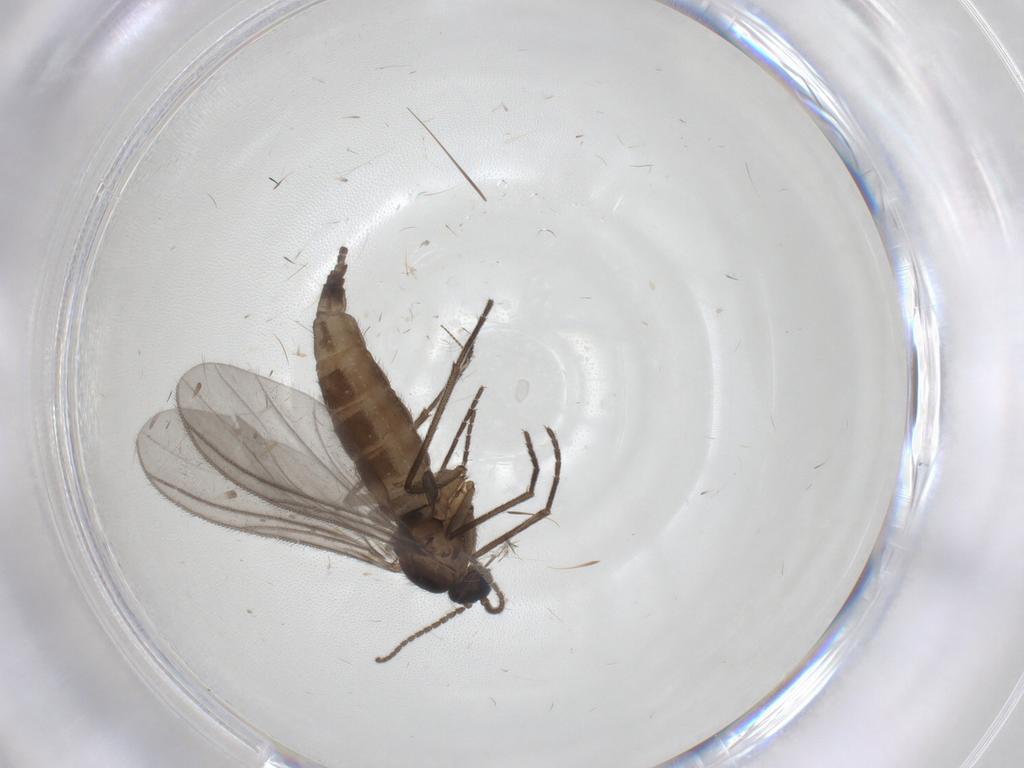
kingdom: Animalia
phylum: Arthropoda
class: Insecta
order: Diptera
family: Sciaridae
